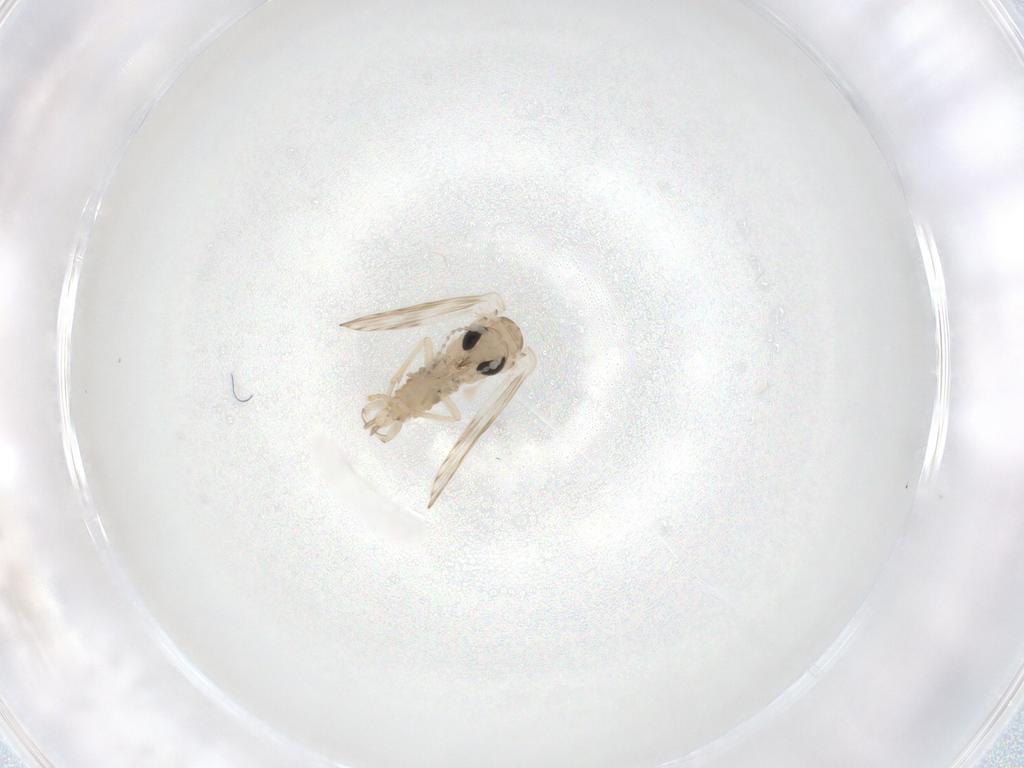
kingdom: Animalia
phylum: Arthropoda
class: Insecta
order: Diptera
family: Psychodidae
